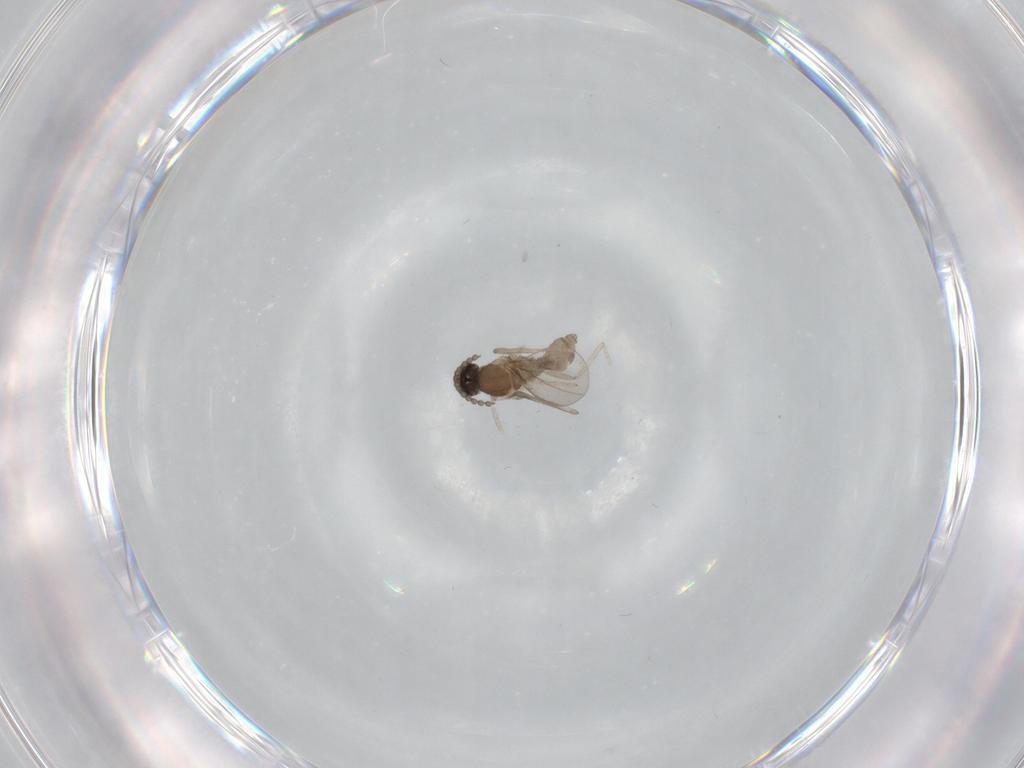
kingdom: Animalia
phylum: Arthropoda
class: Insecta
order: Diptera
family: Cecidomyiidae
